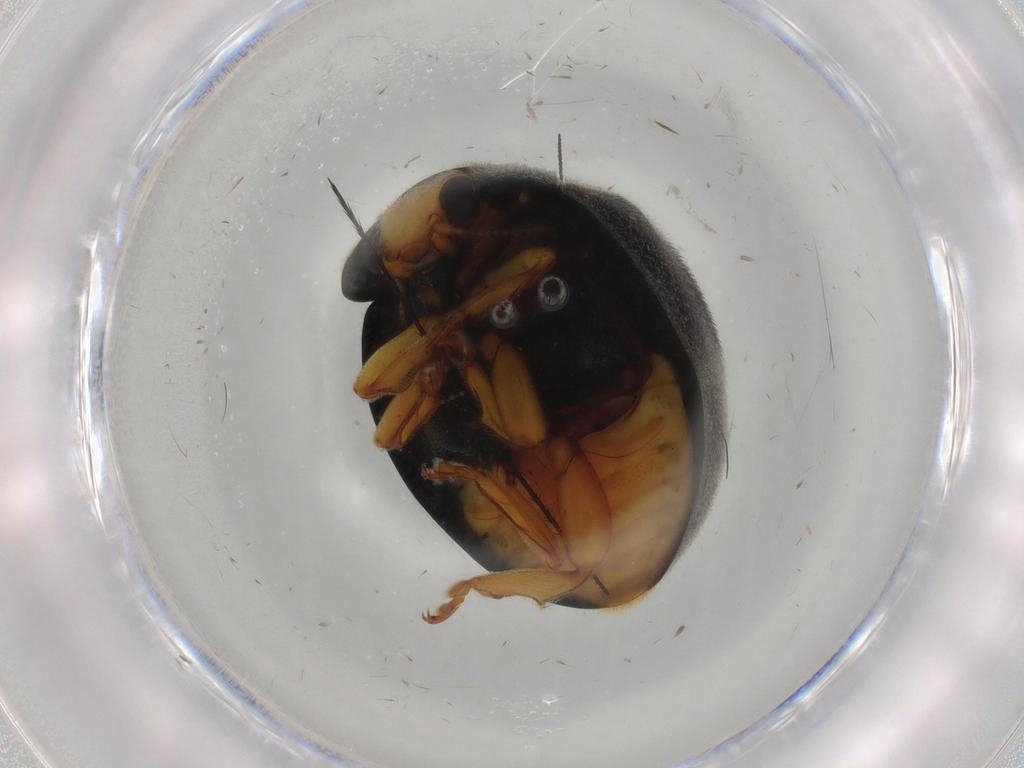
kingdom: Animalia
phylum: Arthropoda
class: Insecta
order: Coleoptera
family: Coccinellidae
